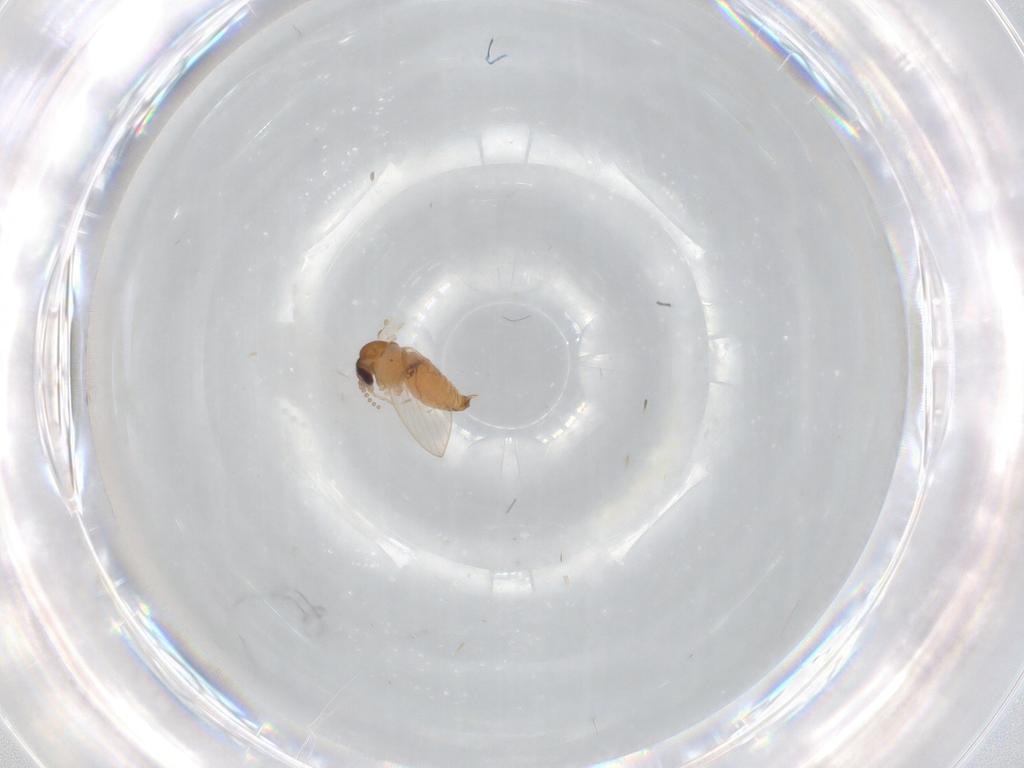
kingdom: Animalia
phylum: Arthropoda
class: Insecta
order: Diptera
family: Psychodidae
